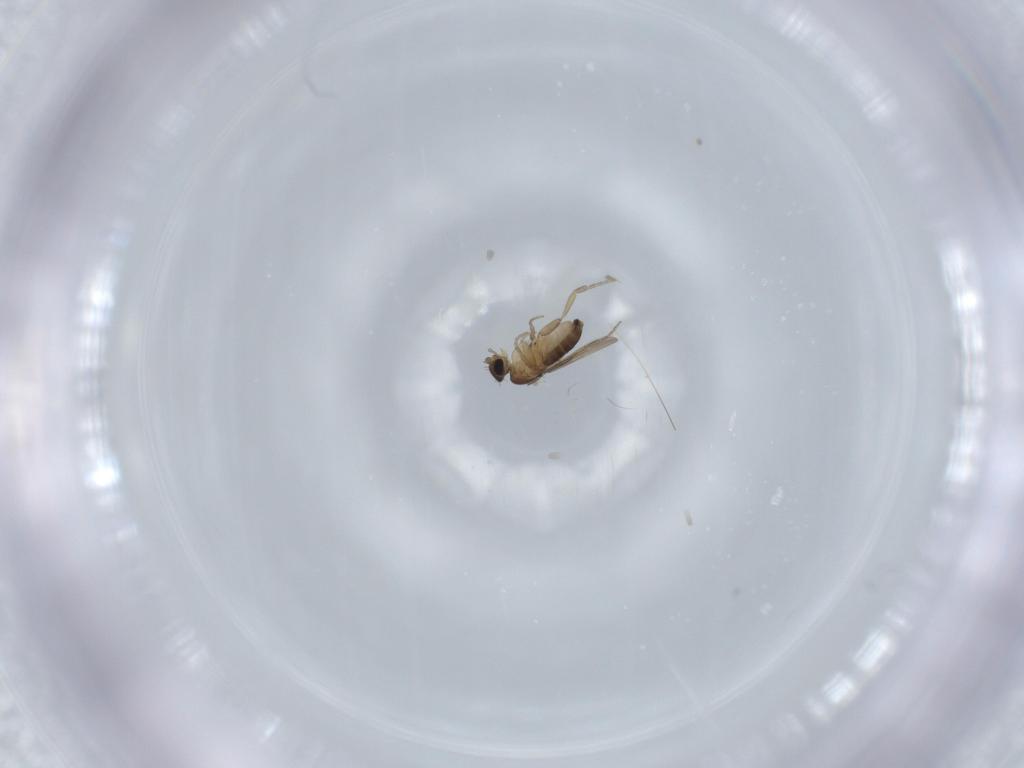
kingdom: Animalia
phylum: Arthropoda
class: Insecta
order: Diptera
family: Phoridae
